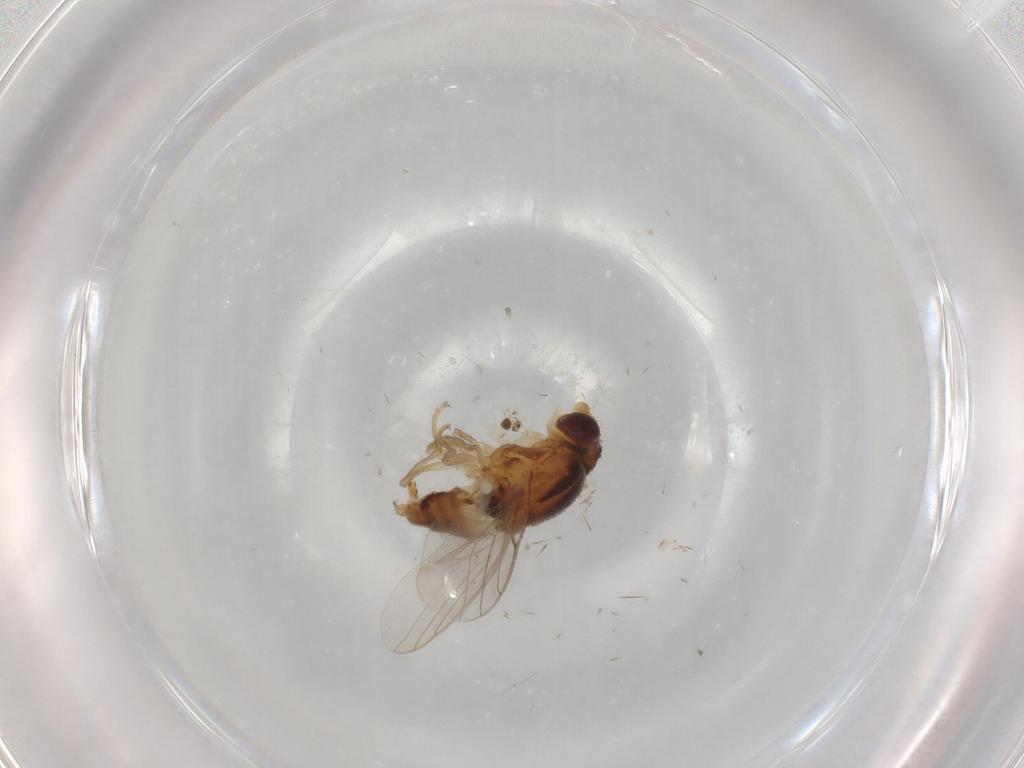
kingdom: Animalia
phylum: Arthropoda
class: Insecta
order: Diptera
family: Chloropidae
